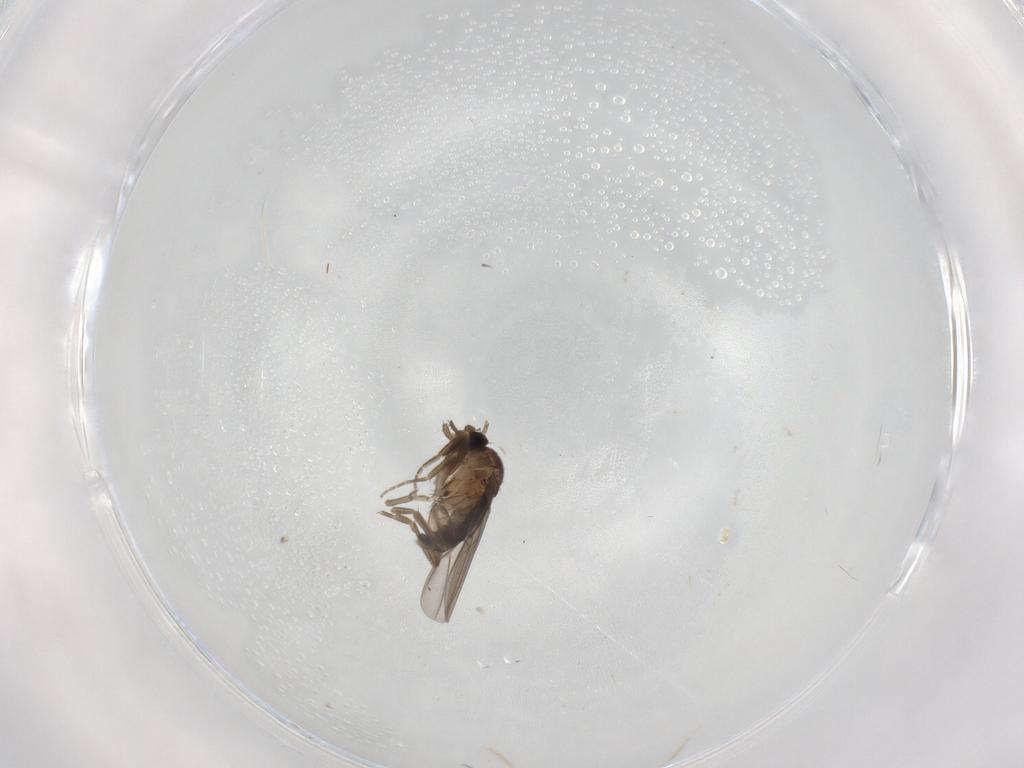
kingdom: Animalia
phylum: Arthropoda
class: Insecta
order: Diptera
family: Phoridae
